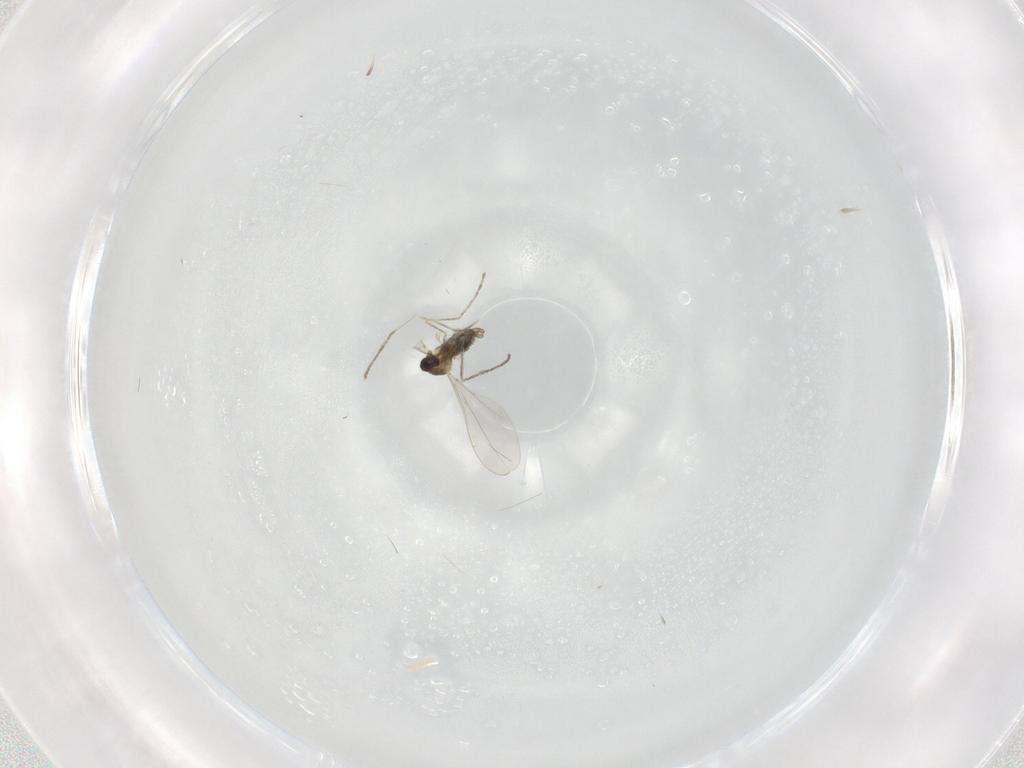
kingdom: Animalia
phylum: Arthropoda
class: Insecta
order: Diptera
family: Cecidomyiidae
